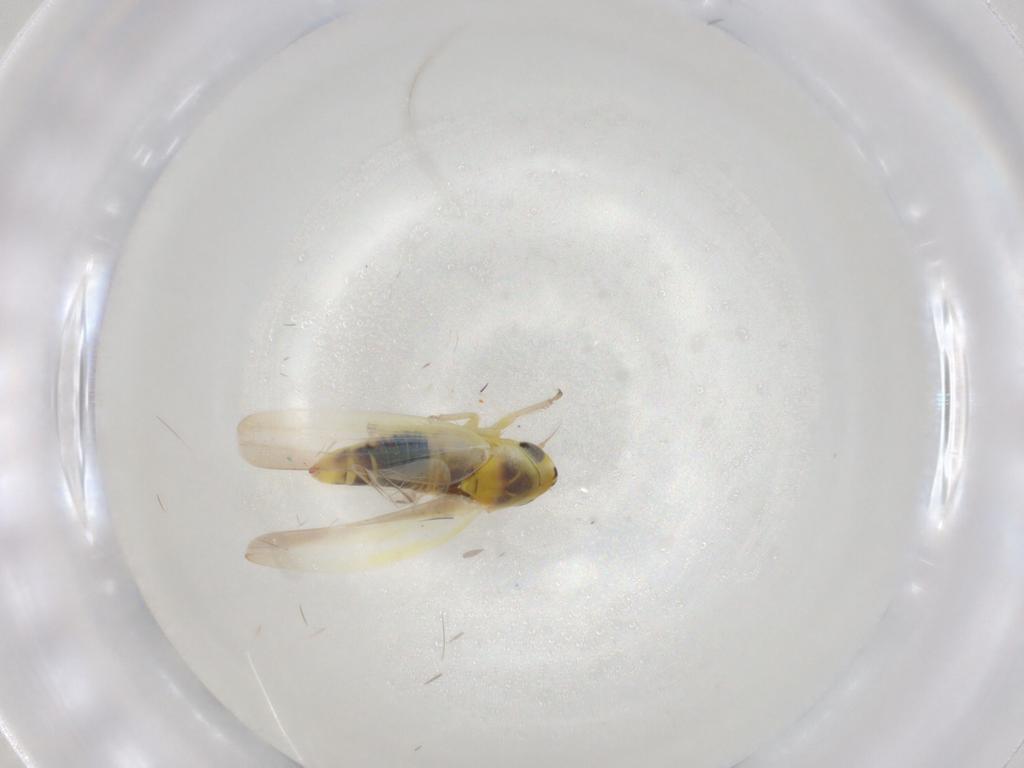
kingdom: Animalia
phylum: Arthropoda
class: Insecta
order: Hemiptera
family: Cicadellidae
